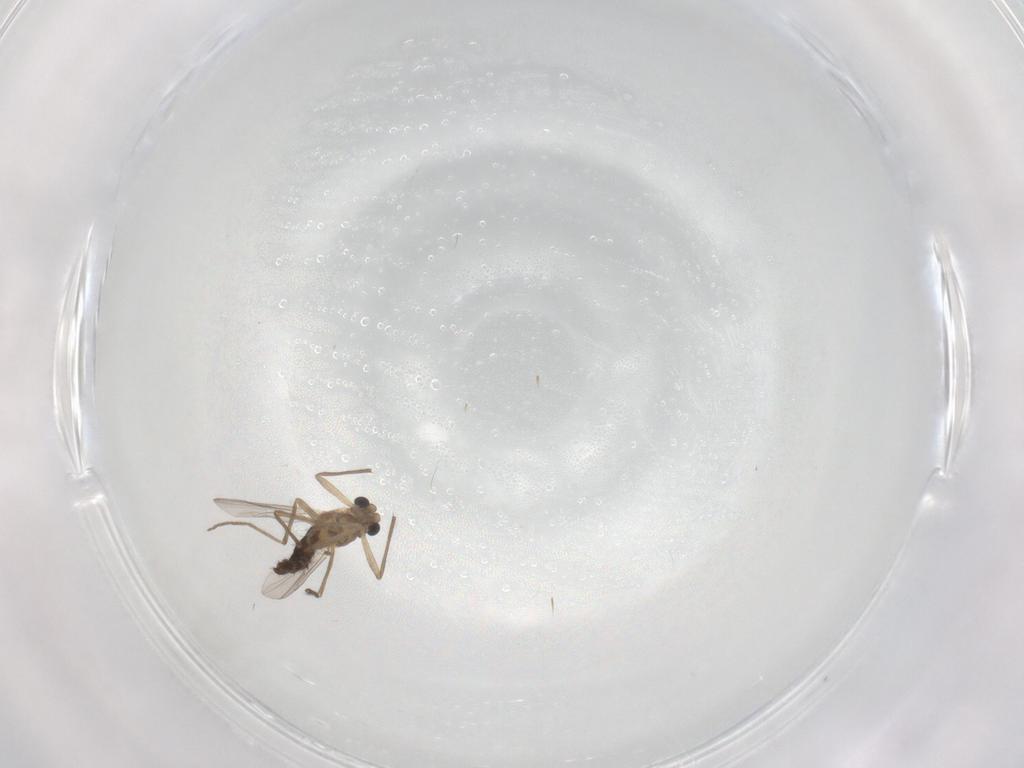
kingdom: Animalia
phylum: Arthropoda
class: Insecta
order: Diptera
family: Chironomidae
